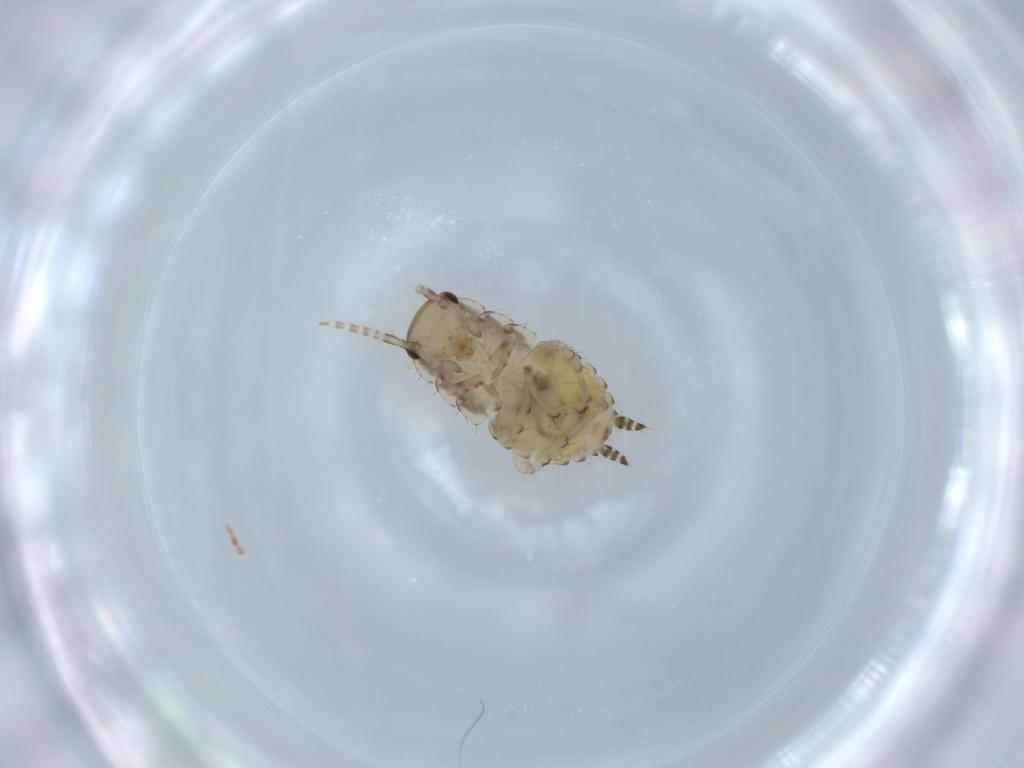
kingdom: Animalia
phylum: Arthropoda
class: Insecta
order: Blattodea
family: Ectobiidae
